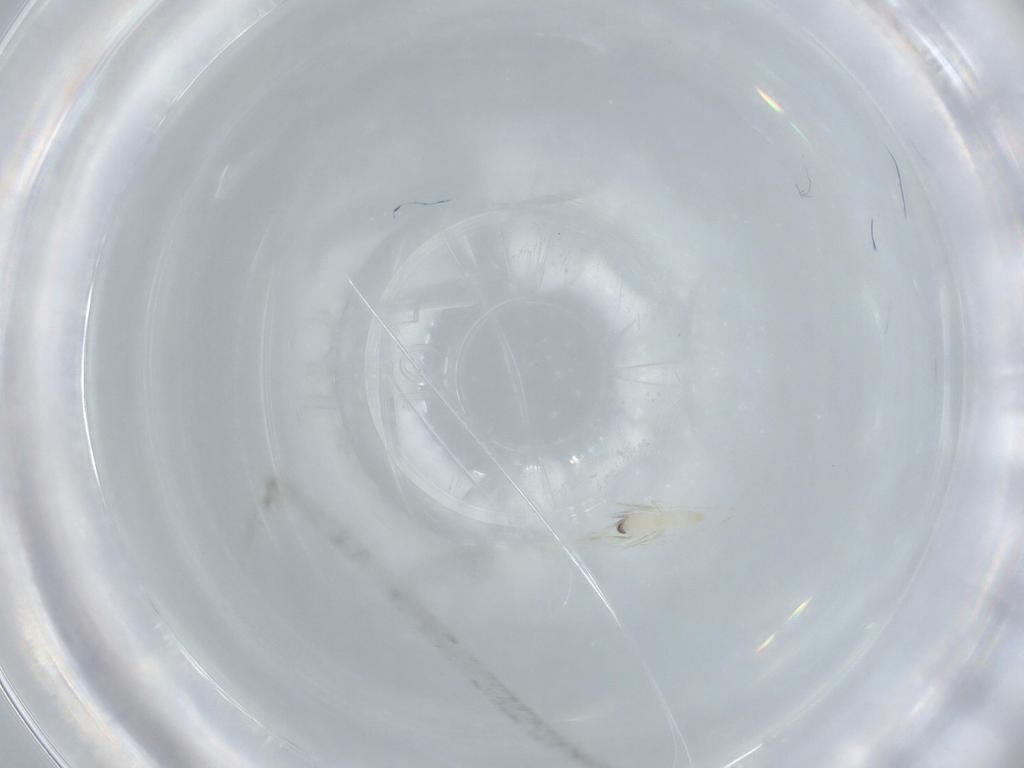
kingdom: Animalia
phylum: Arthropoda
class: Insecta
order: Diptera
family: Cecidomyiidae
